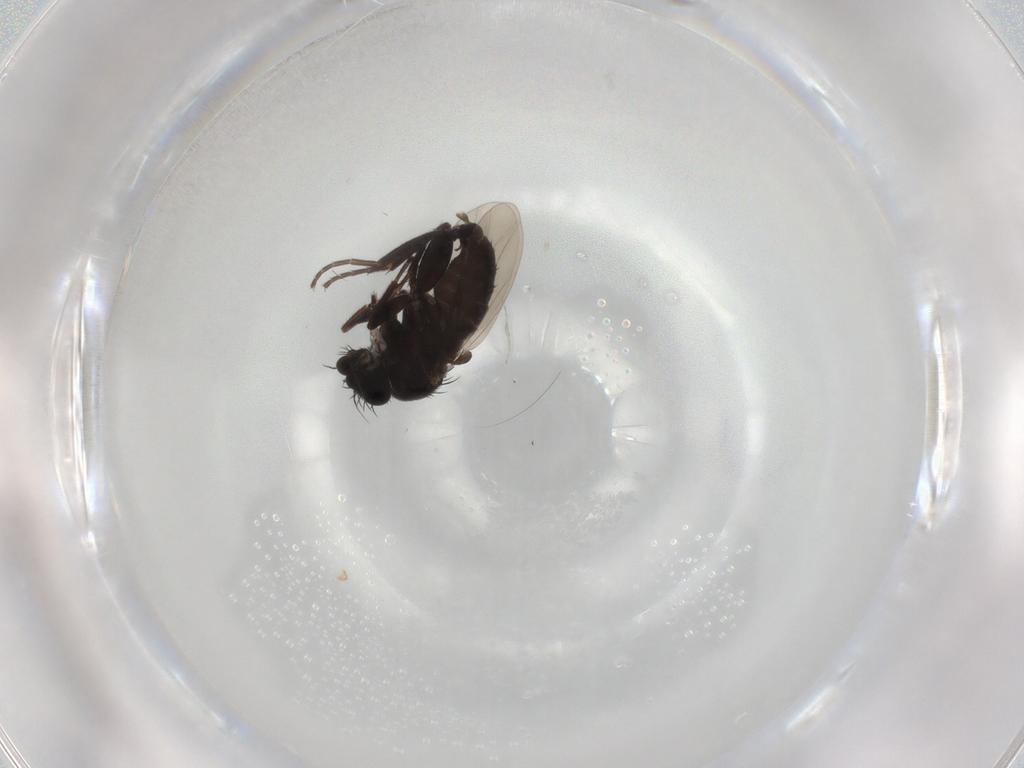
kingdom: Animalia
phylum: Arthropoda
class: Insecta
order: Diptera
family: Phoridae
